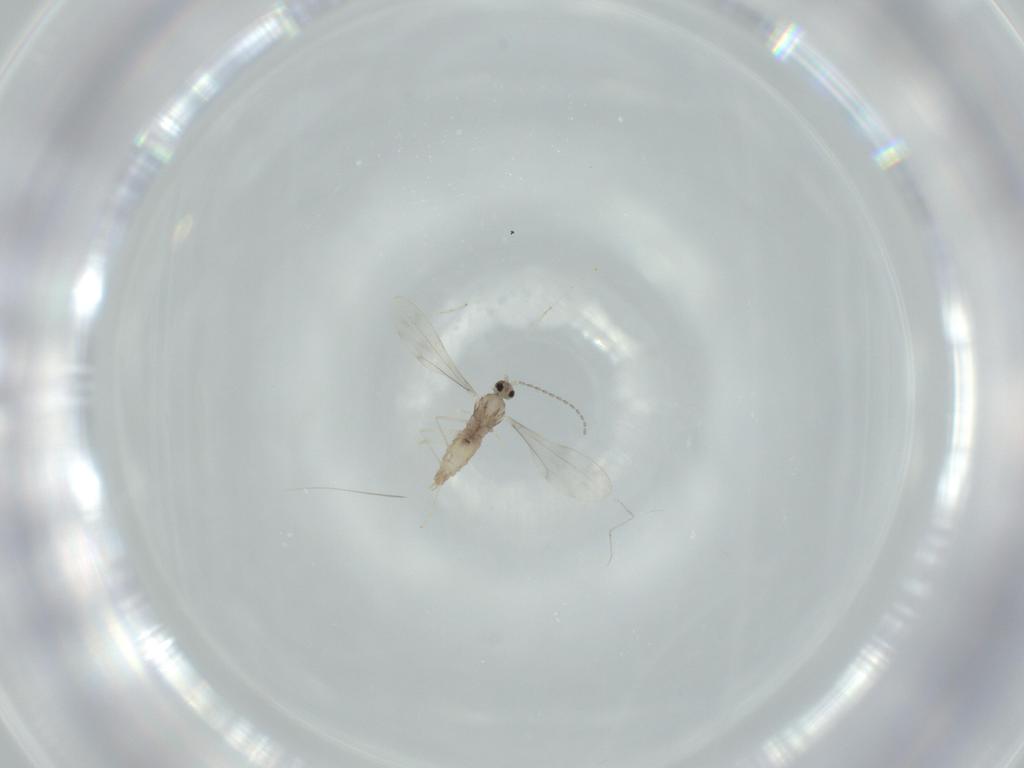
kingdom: Animalia
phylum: Arthropoda
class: Insecta
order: Diptera
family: Cecidomyiidae
